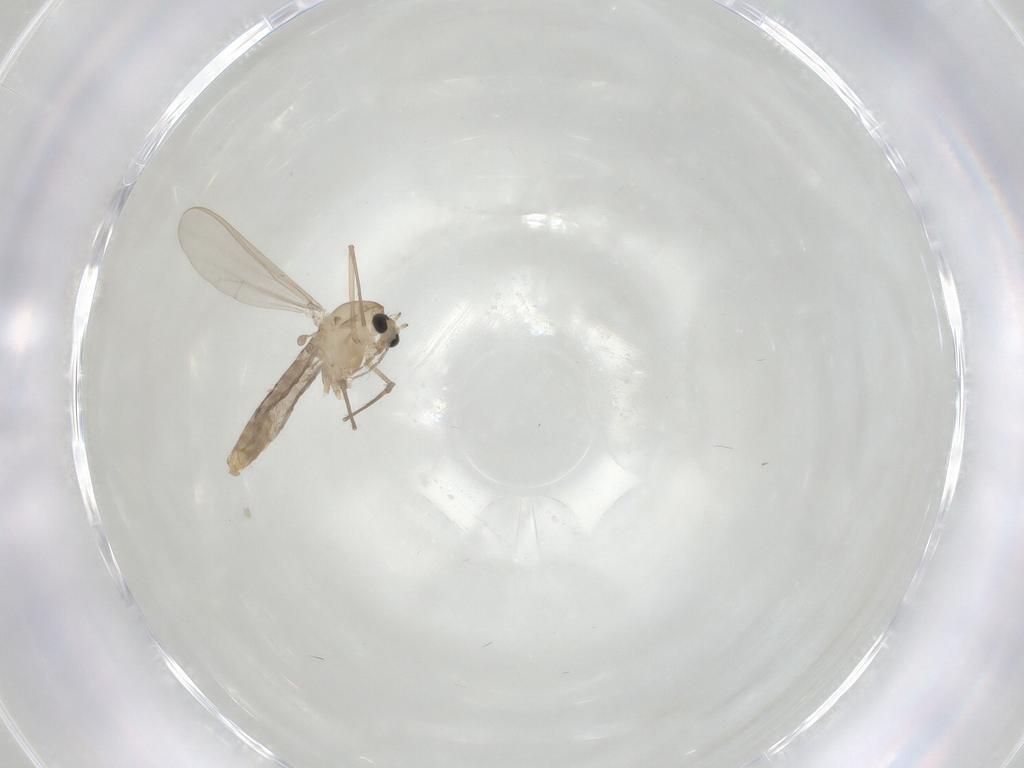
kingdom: Animalia
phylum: Arthropoda
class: Insecta
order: Diptera
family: Chironomidae
